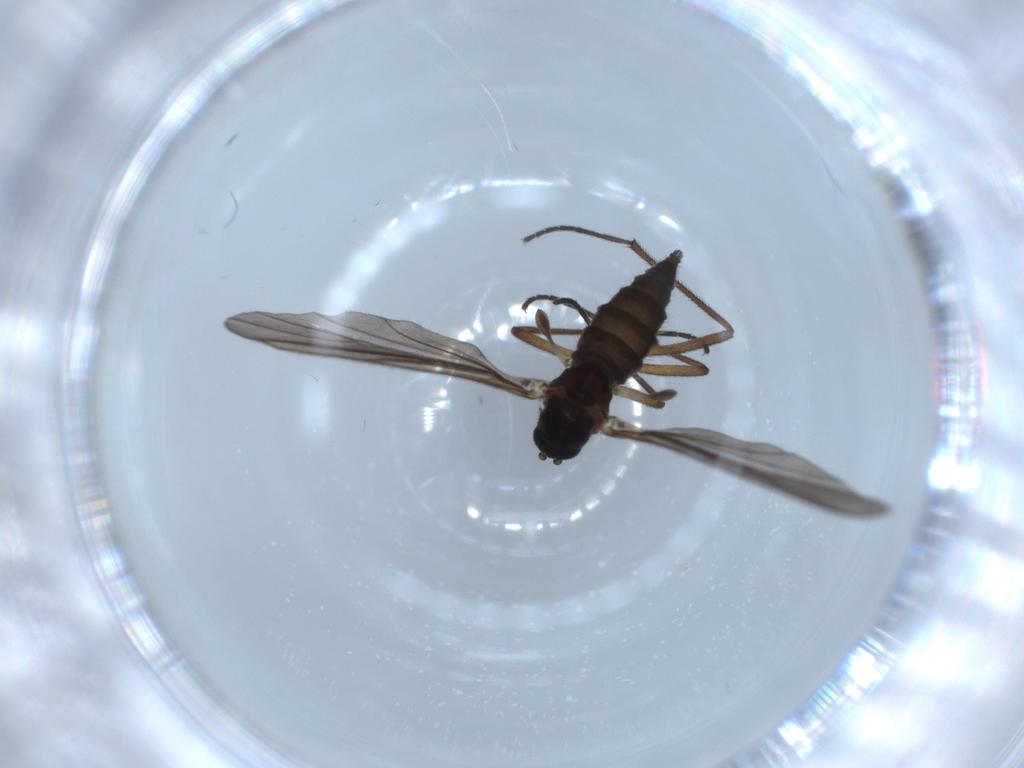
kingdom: Animalia
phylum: Arthropoda
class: Insecta
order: Diptera
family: Sciaridae
